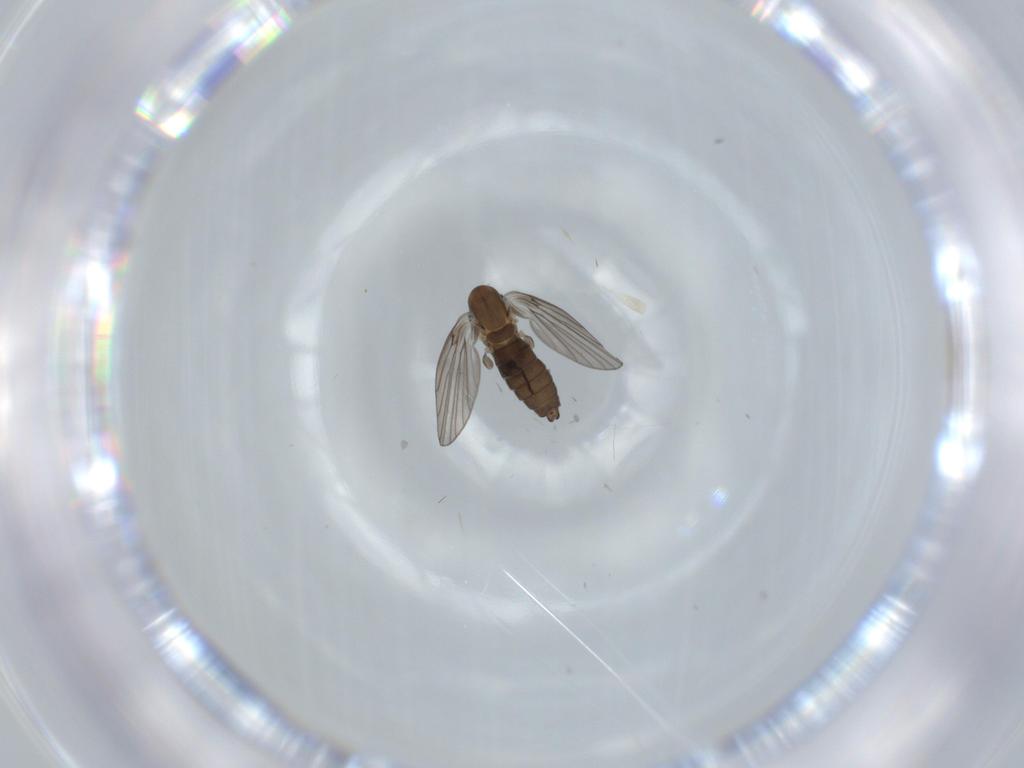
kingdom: Animalia
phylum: Arthropoda
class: Insecta
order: Diptera
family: Psychodidae
